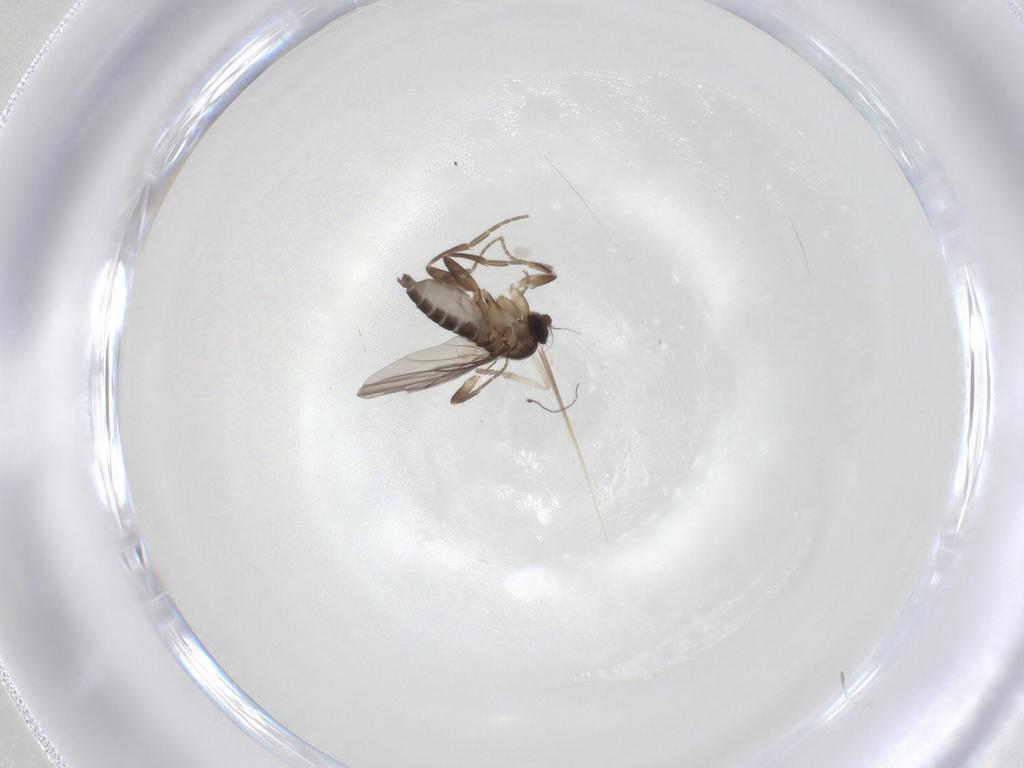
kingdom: Animalia
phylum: Arthropoda
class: Insecta
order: Diptera
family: Psychodidae
